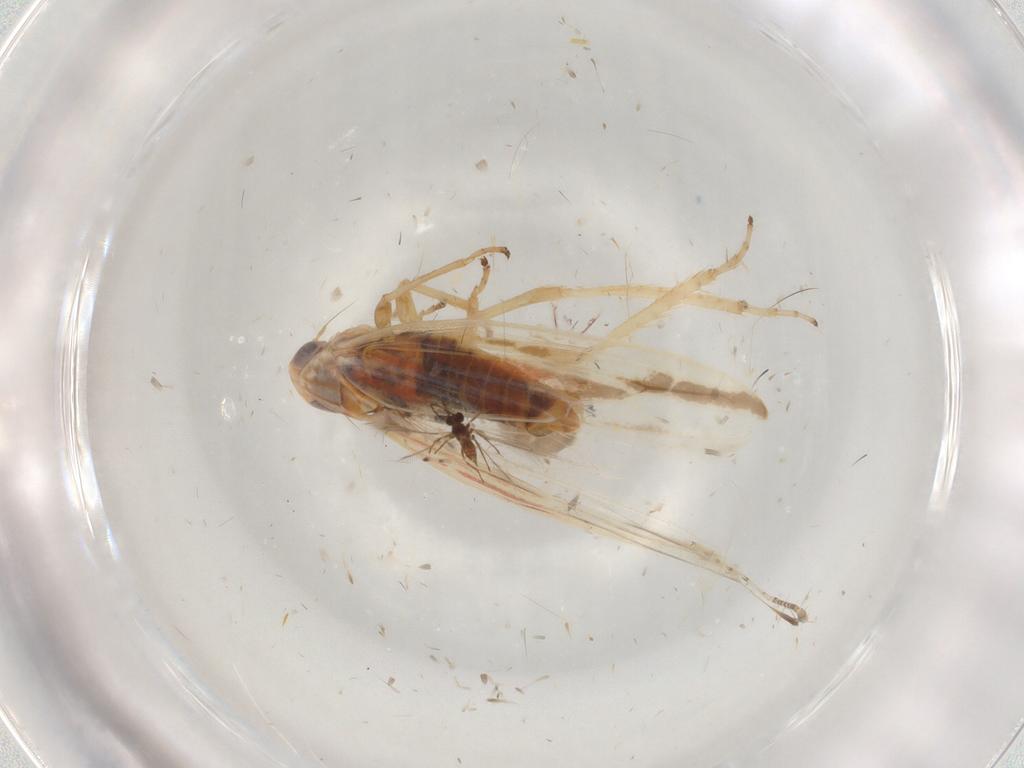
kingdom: Animalia
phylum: Arthropoda
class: Insecta
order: Hemiptera
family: Cicadellidae
